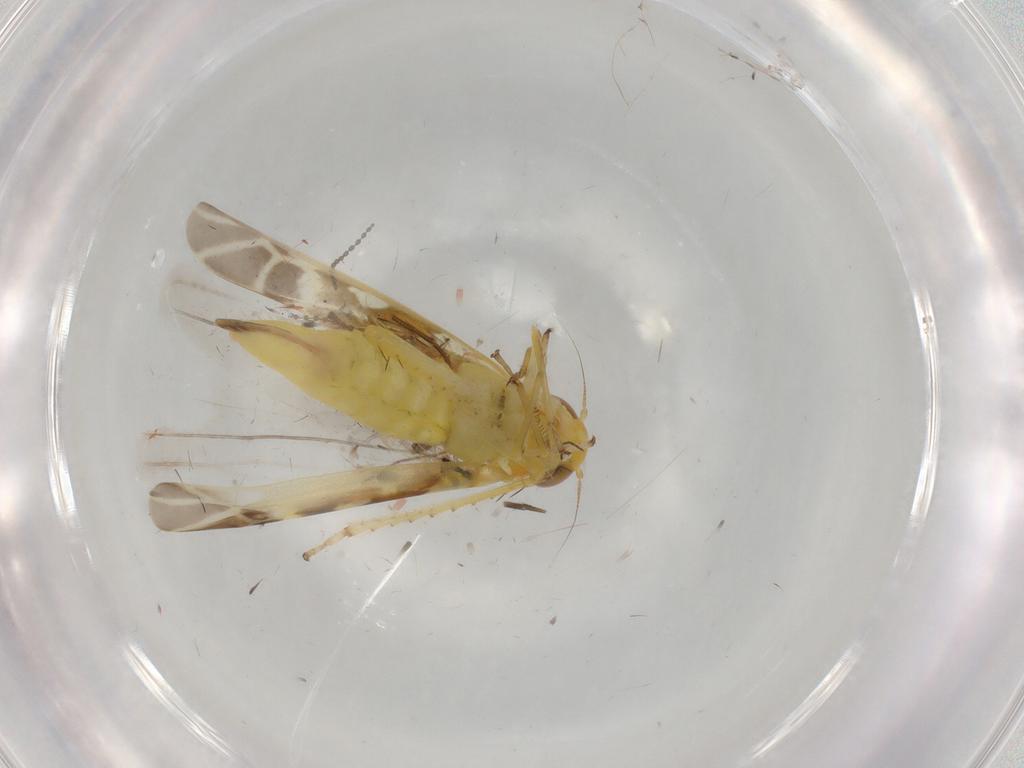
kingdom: Animalia
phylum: Arthropoda
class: Insecta
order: Hemiptera
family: Cicadellidae
